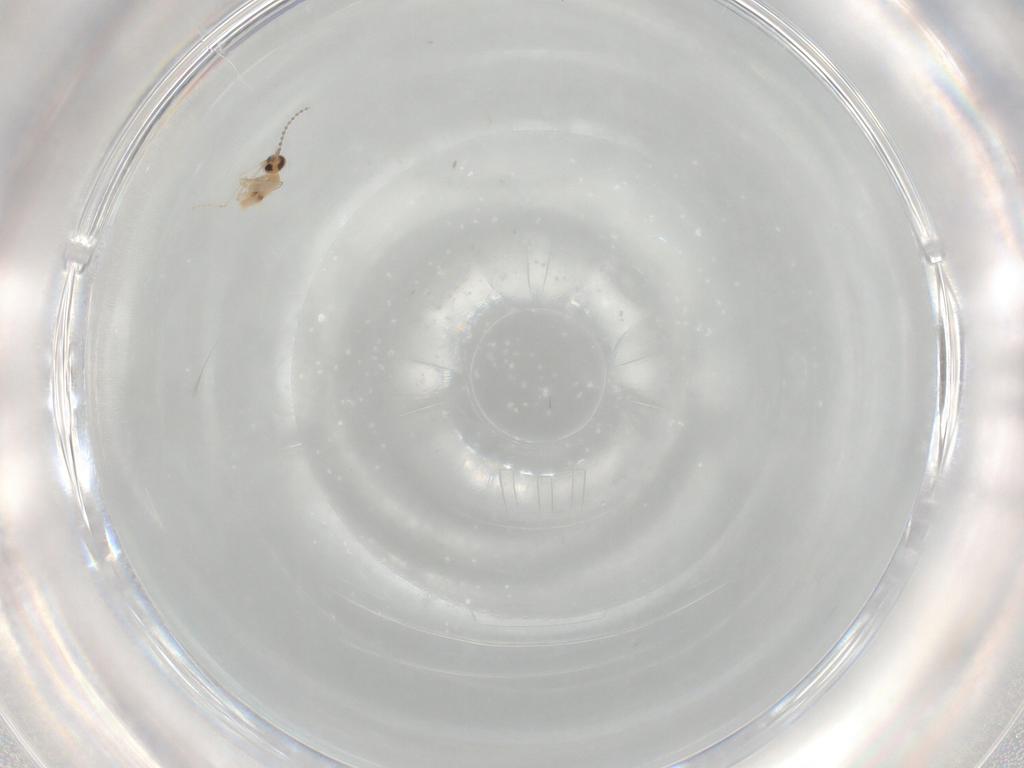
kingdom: Animalia
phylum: Arthropoda
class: Insecta
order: Diptera
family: Cecidomyiidae
